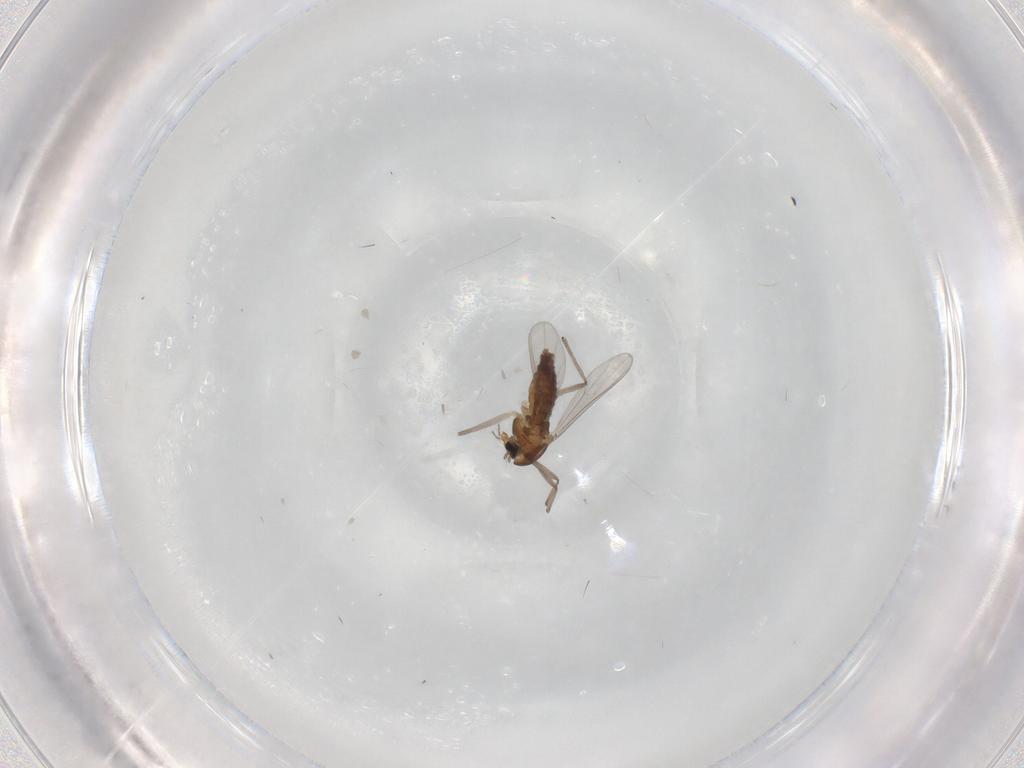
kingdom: Animalia
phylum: Arthropoda
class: Insecta
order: Diptera
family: Chironomidae
